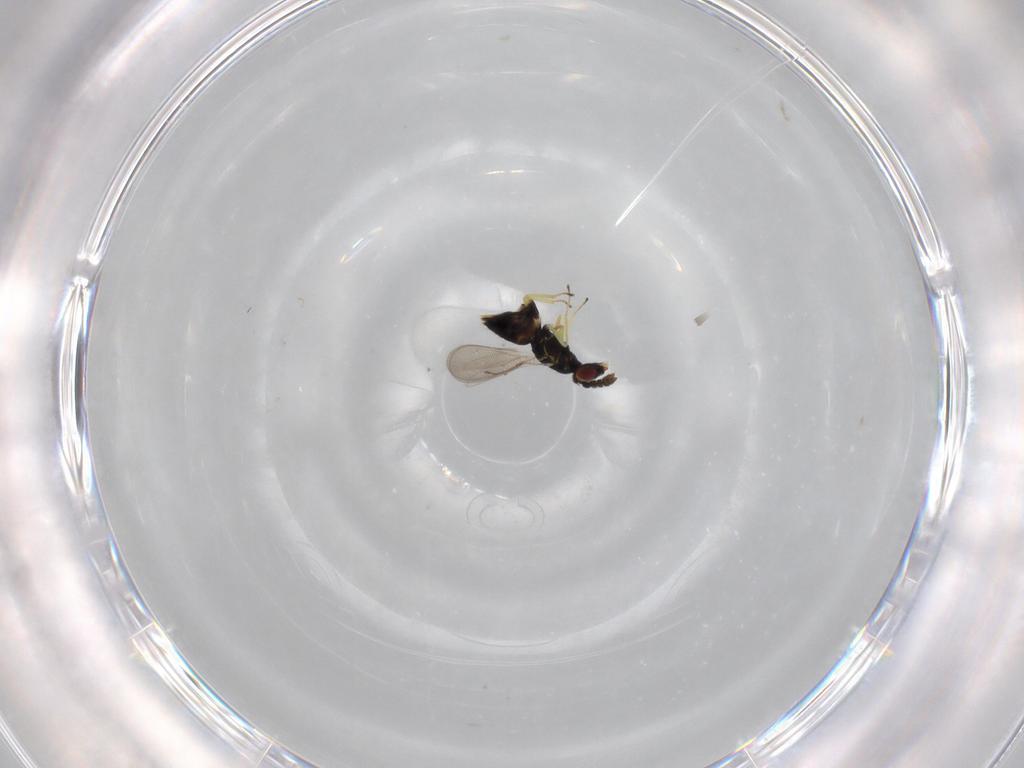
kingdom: Animalia
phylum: Arthropoda
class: Insecta
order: Hymenoptera
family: Eulophidae
